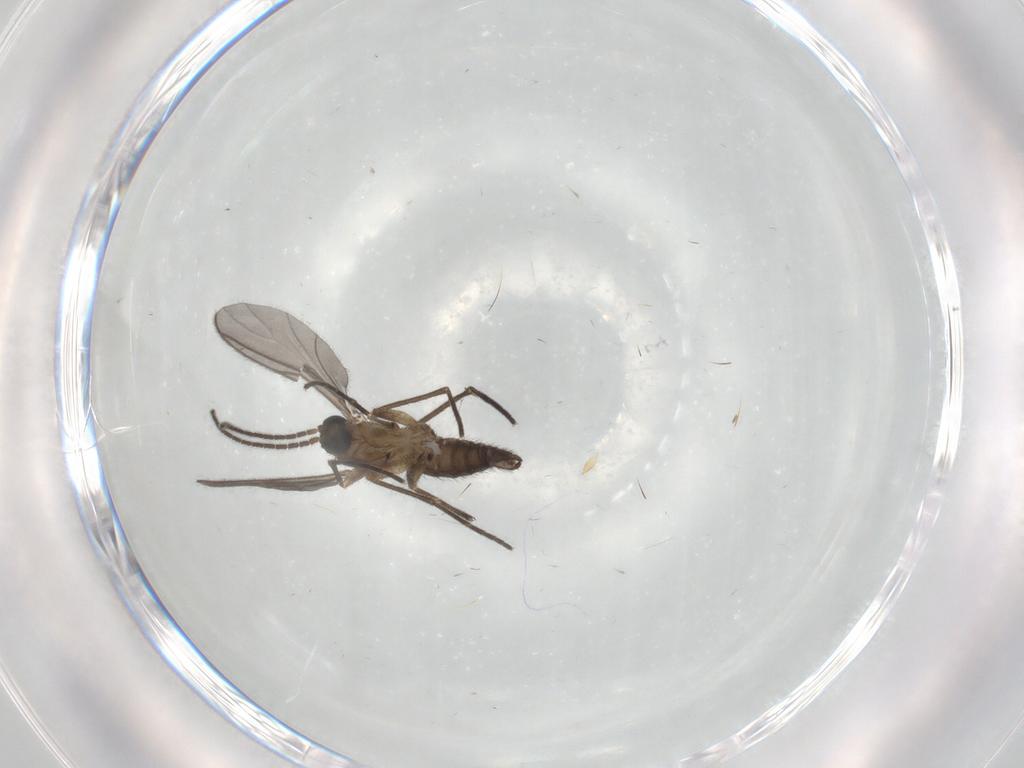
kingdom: Animalia
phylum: Arthropoda
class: Insecta
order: Diptera
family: Sciaridae
